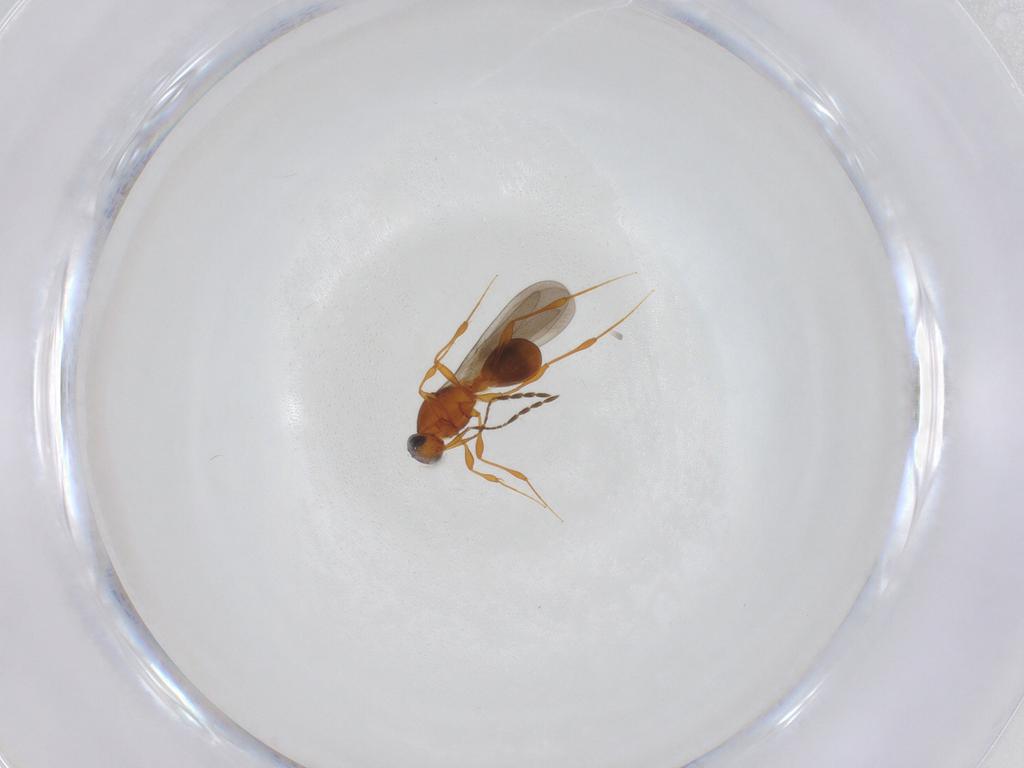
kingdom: Animalia
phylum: Arthropoda
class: Insecta
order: Hymenoptera
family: Platygastridae
